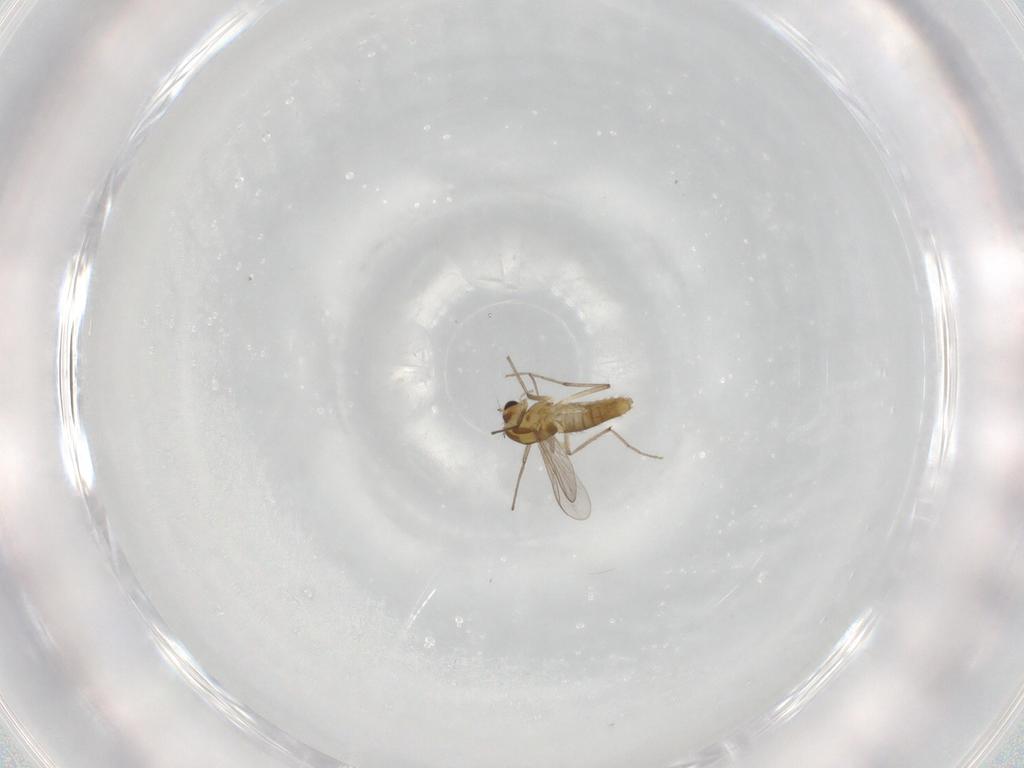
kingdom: Animalia
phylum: Arthropoda
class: Insecta
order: Diptera
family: Chironomidae
